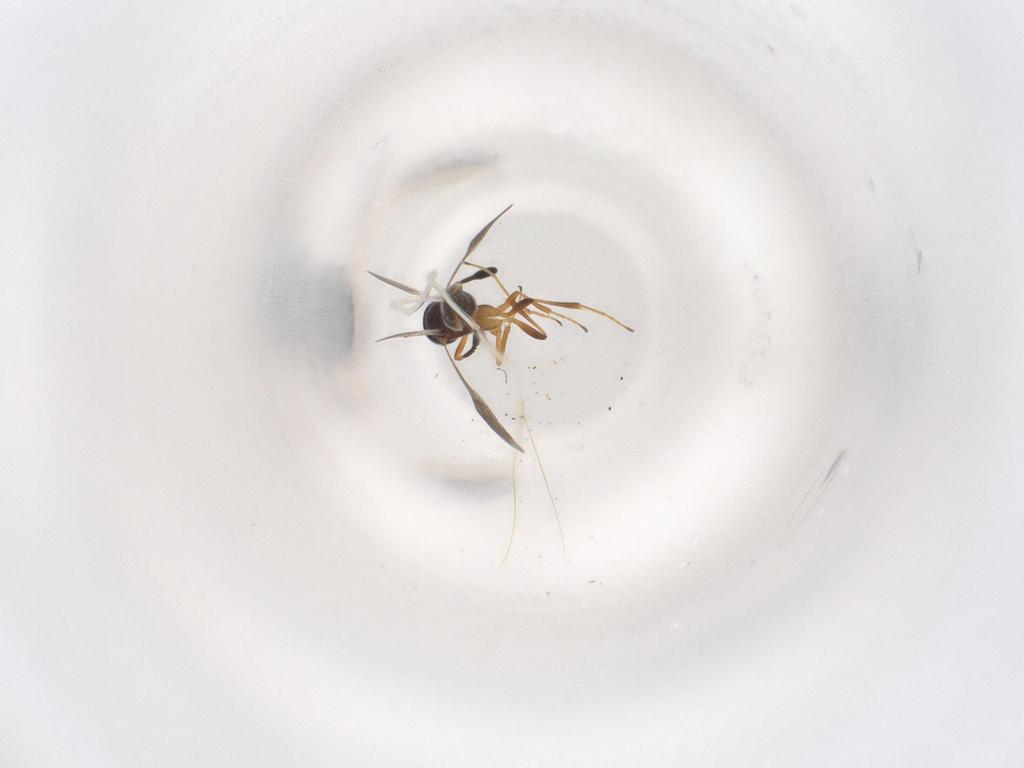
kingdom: Animalia
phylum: Arthropoda
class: Insecta
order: Hymenoptera
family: Scelionidae
